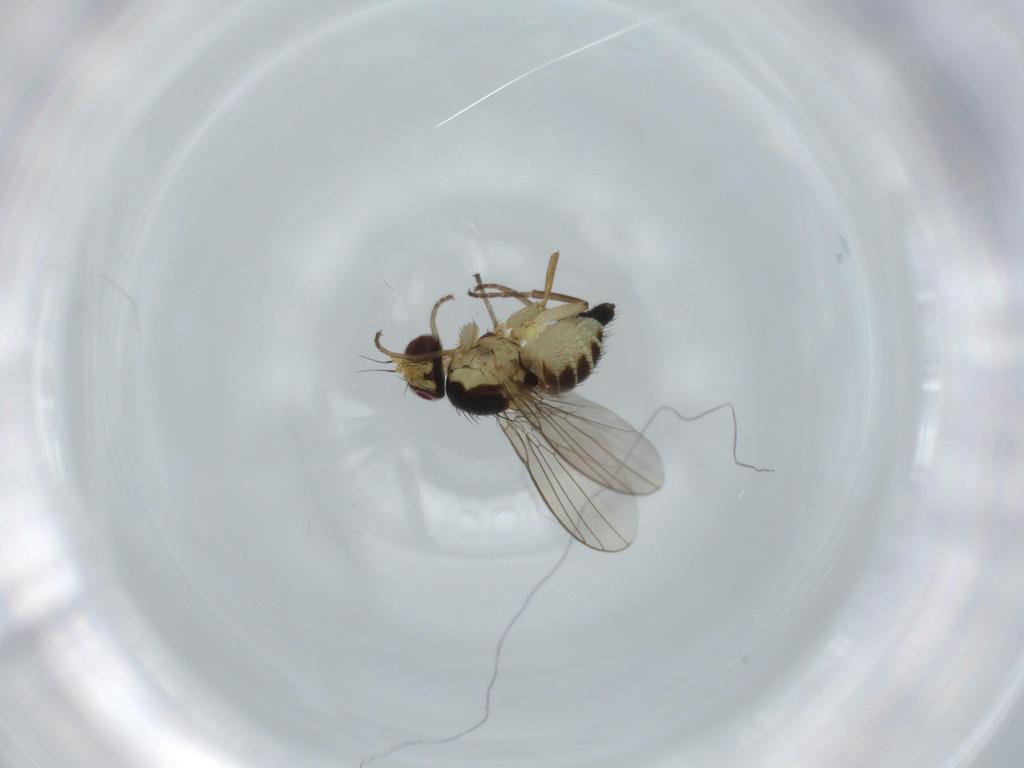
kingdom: Animalia
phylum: Arthropoda
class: Insecta
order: Diptera
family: Agromyzidae
